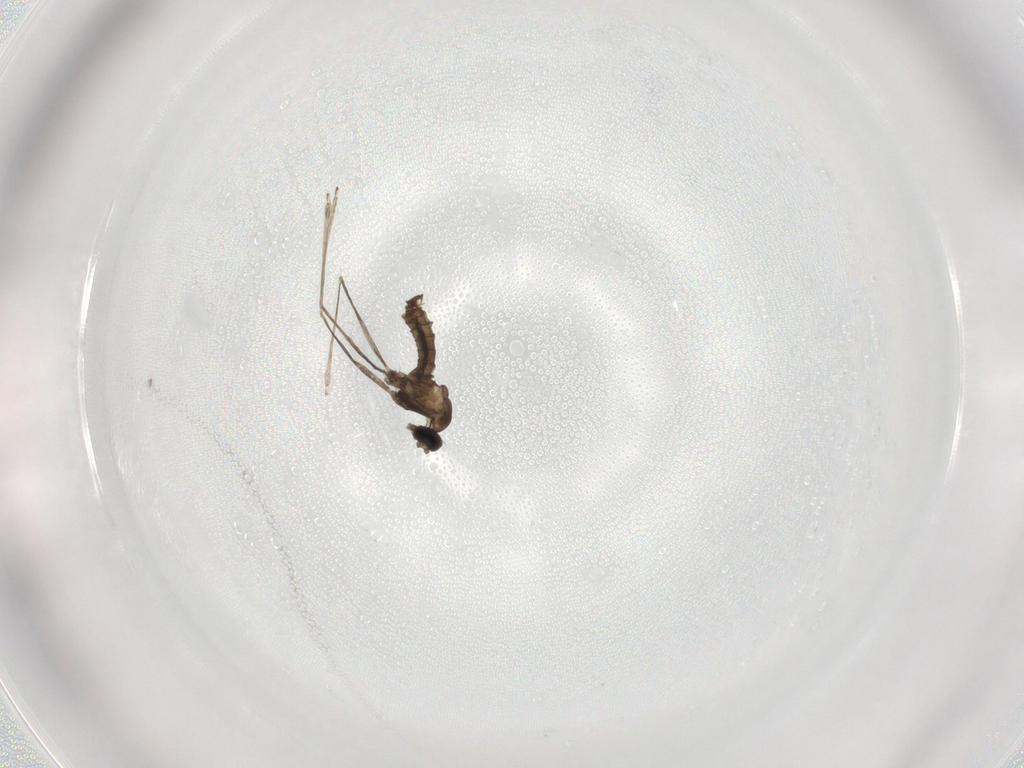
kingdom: Animalia
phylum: Arthropoda
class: Insecta
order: Diptera
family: Cecidomyiidae
